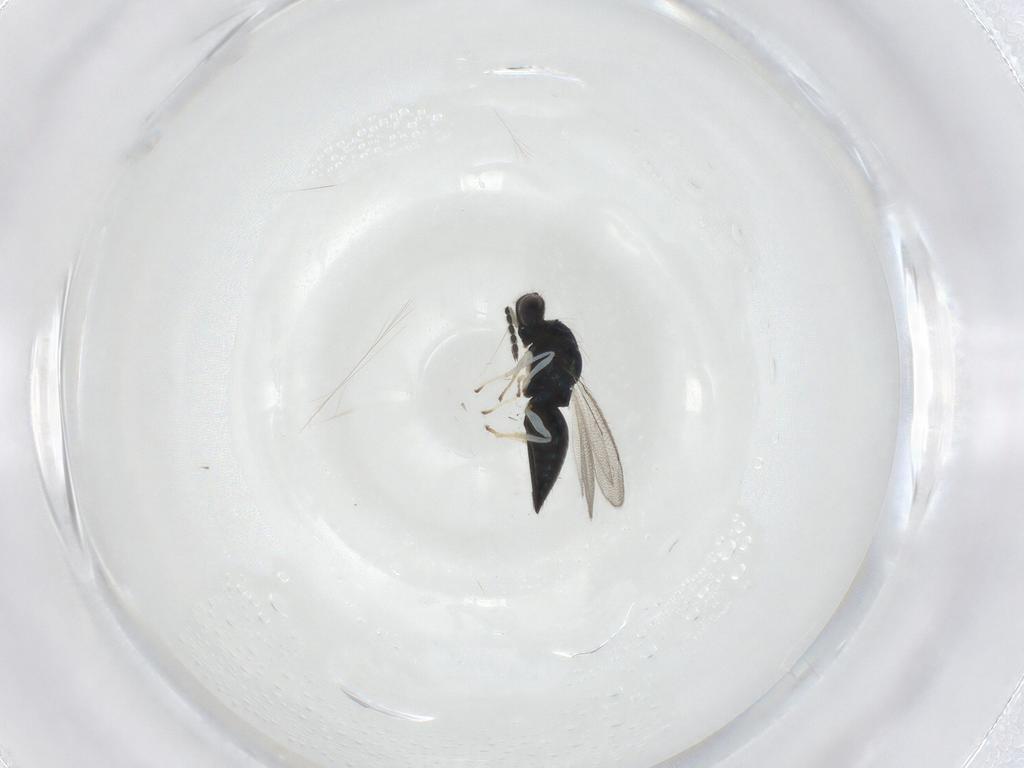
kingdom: Animalia
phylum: Arthropoda
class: Insecta
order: Hymenoptera
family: Eulophidae
